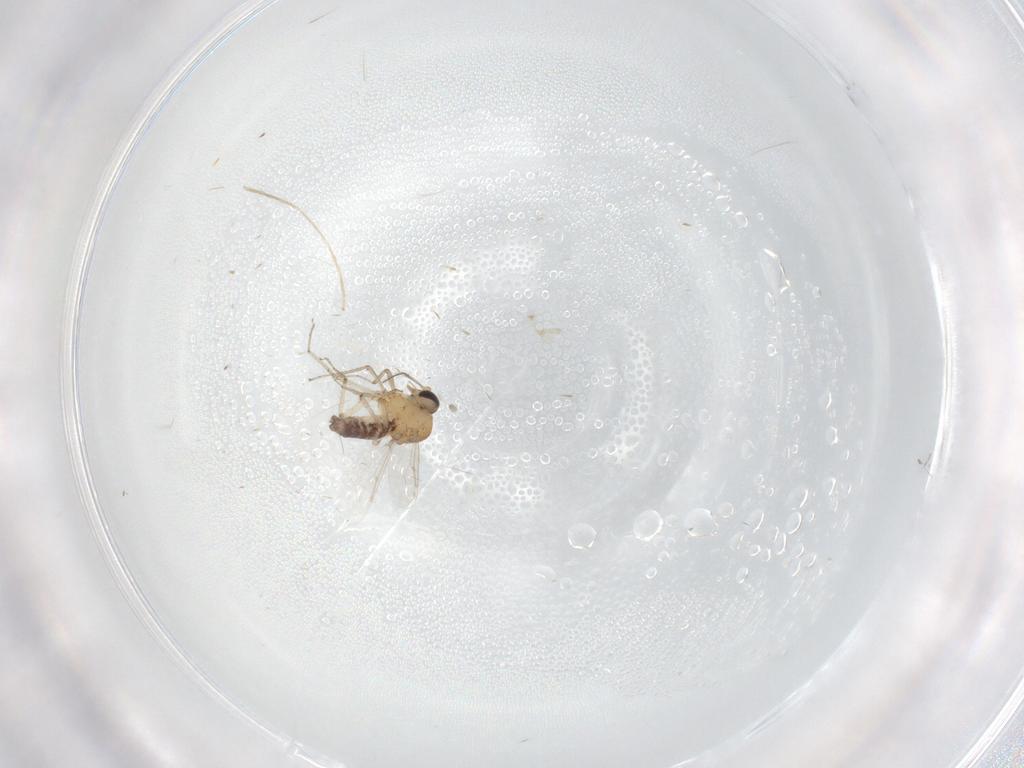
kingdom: Animalia
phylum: Arthropoda
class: Insecta
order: Diptera
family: Ceratopogonidae
